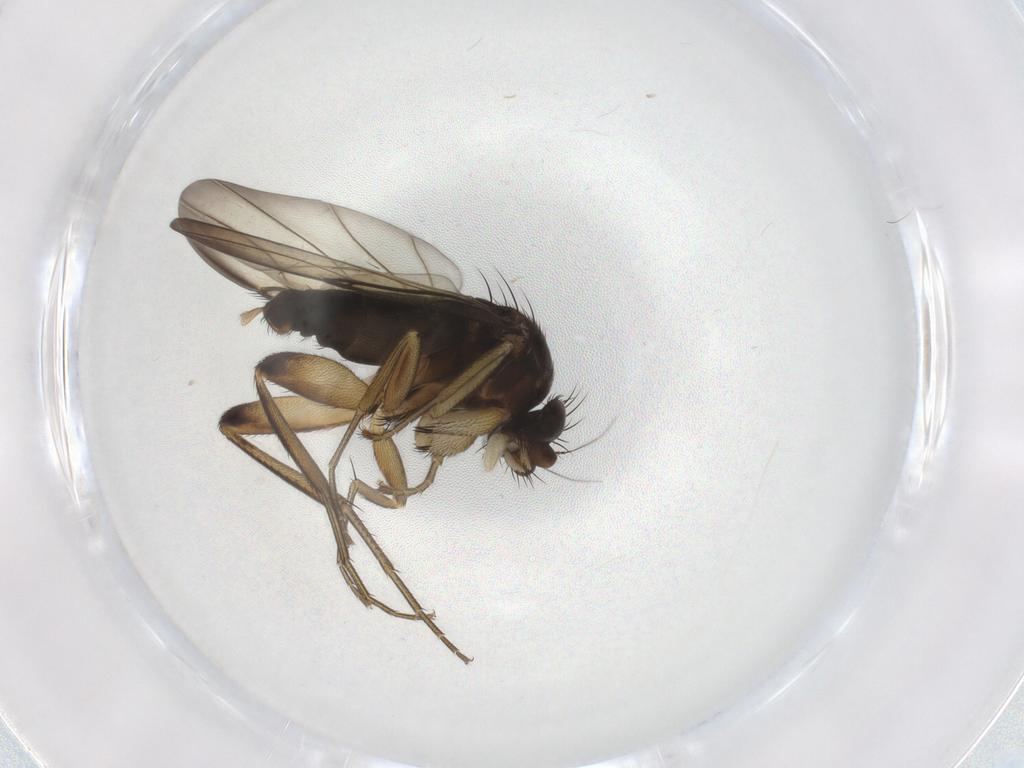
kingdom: Animalia
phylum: Arthropoda
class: Insecta
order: Diptera
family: Phoridae
